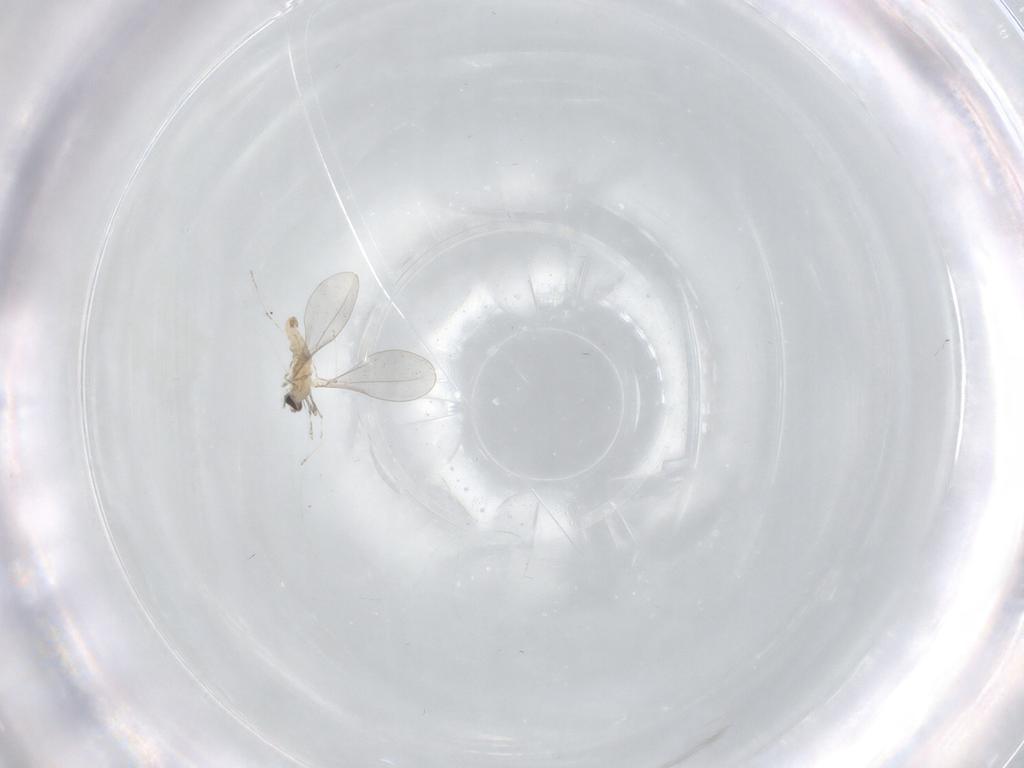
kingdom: Animalia
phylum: Arthropoda
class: Insecta
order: Diptera
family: Cecidomyiidae
